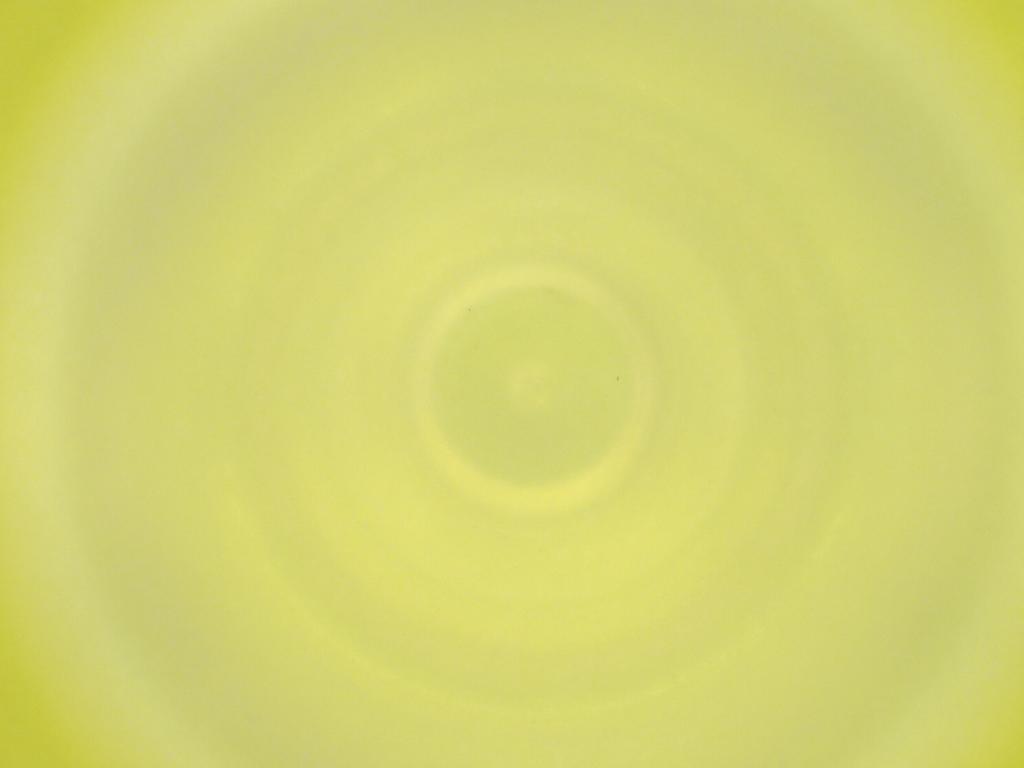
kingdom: Animalia
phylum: Arthropoda
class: Insecta
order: Diptera
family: Cecidomyiidae
